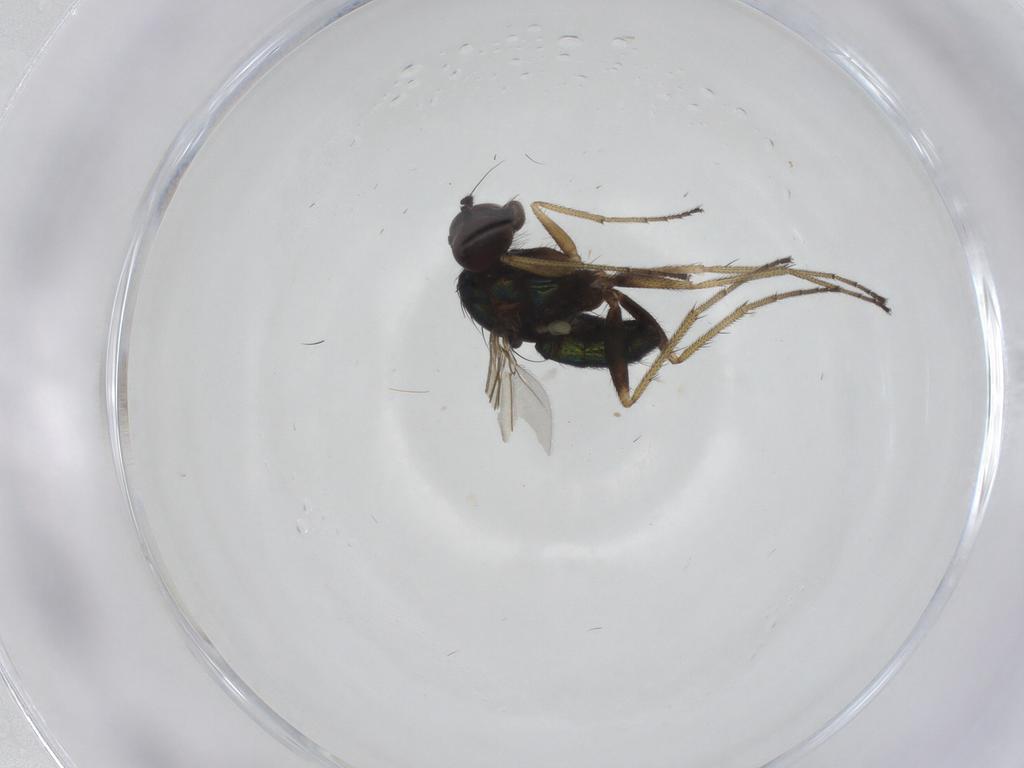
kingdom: Animalia
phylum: Arthropoda
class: Insecta
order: Diptera
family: Dolichopodidae
